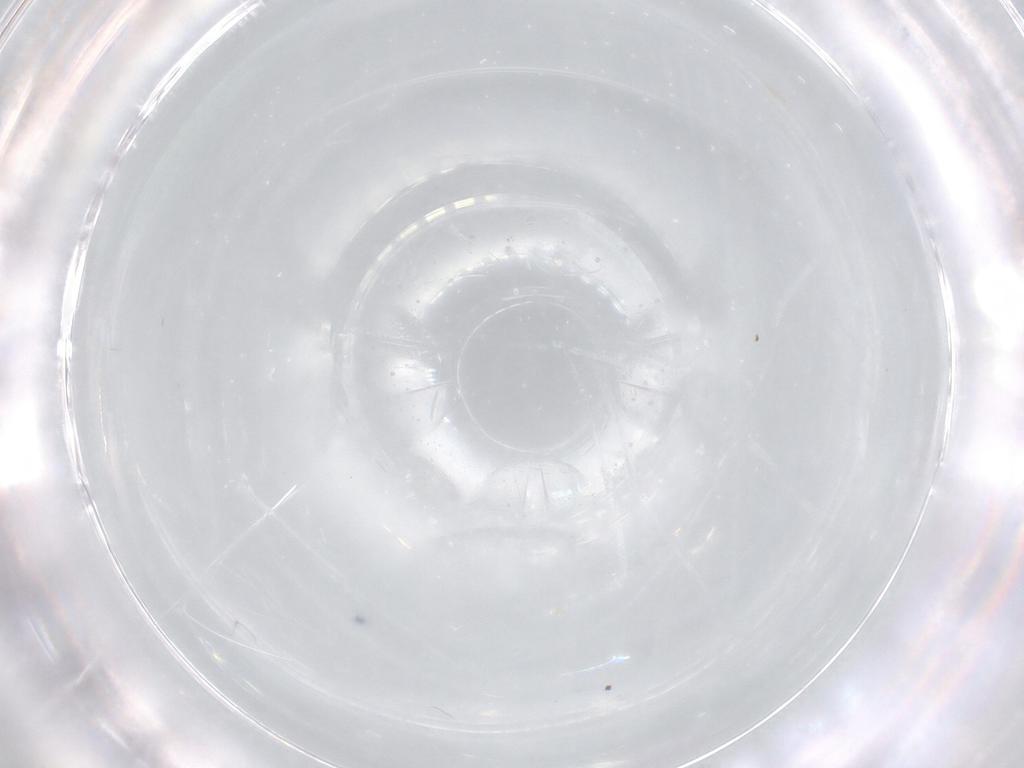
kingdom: Animalia
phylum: Arthropoda
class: Insecta
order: Diptera
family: Chironomidae
